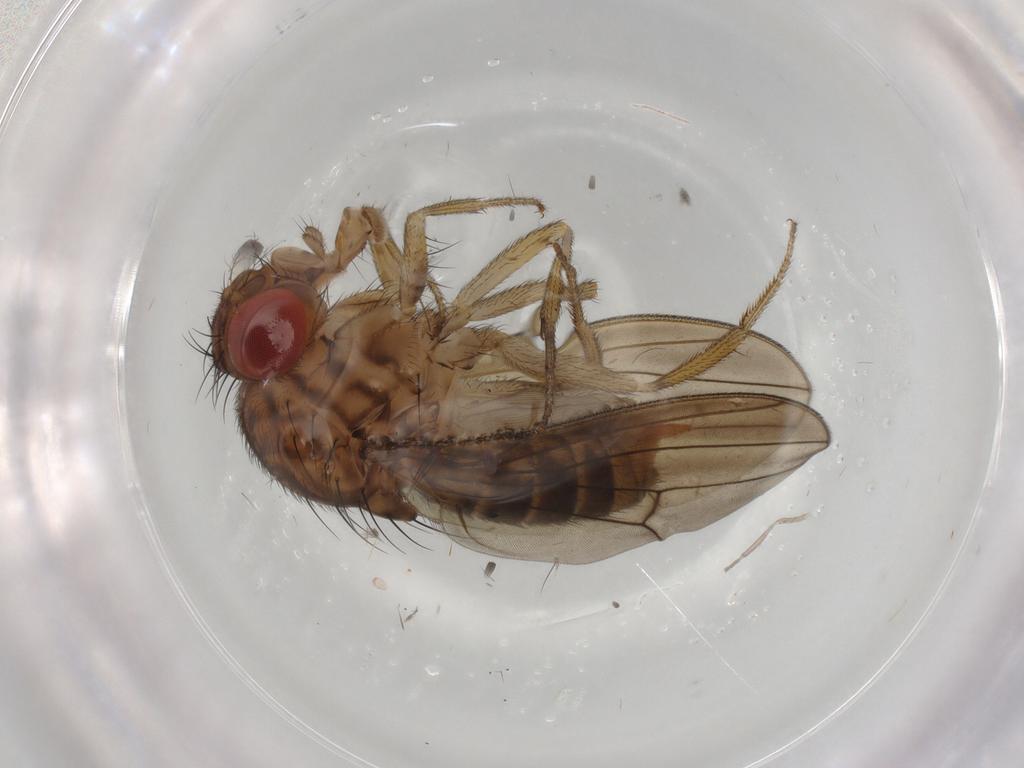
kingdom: Animalia
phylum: Arthropoda
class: Insecta
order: Diptera
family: Drosophilidae
